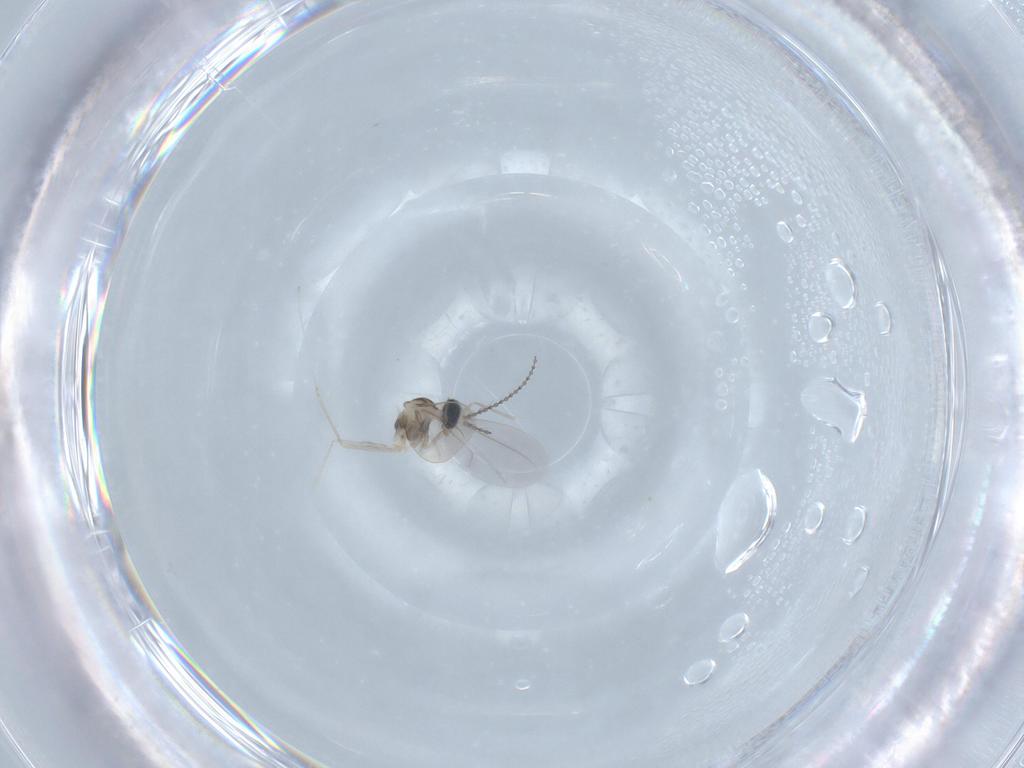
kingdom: Animalia
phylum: Arthropoda
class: Insecta
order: Diptera
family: Cecidomyiidae
